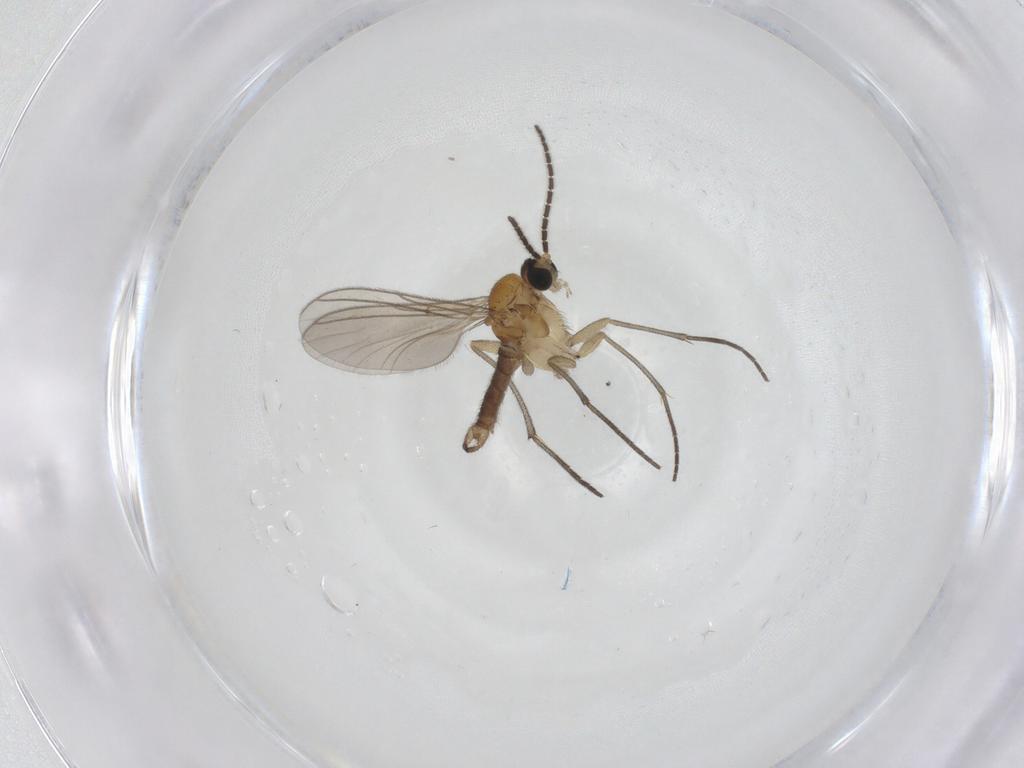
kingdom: Animalia
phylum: Arthropoda
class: Insecta
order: Diptera
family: Sciaridae
